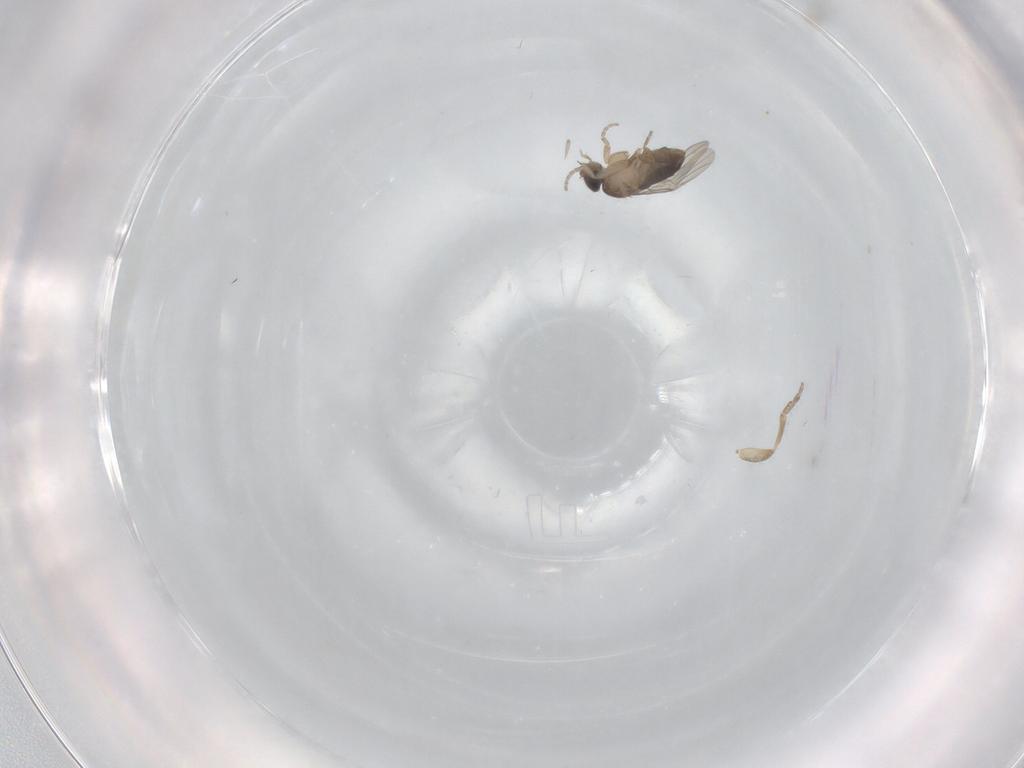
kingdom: Animalia
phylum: Arthropoda
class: Insecta
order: Diptera
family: Phoridae
